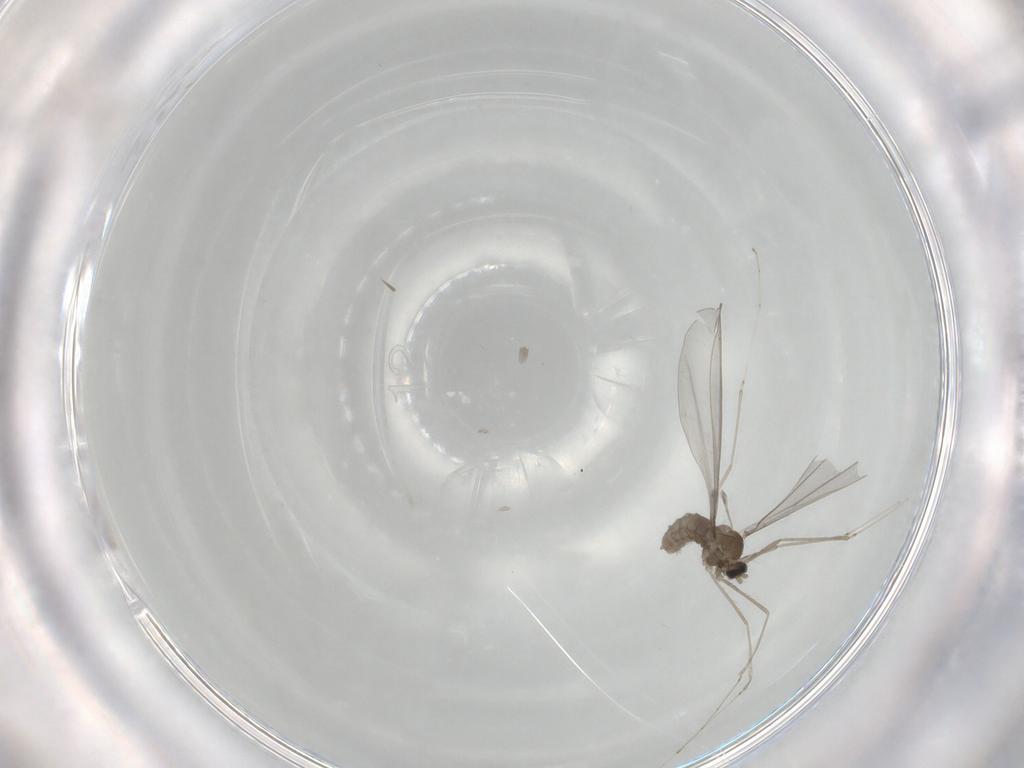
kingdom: Animalia
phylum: Arthropoda
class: Insecta
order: Diptera
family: Cecidomyiidae
